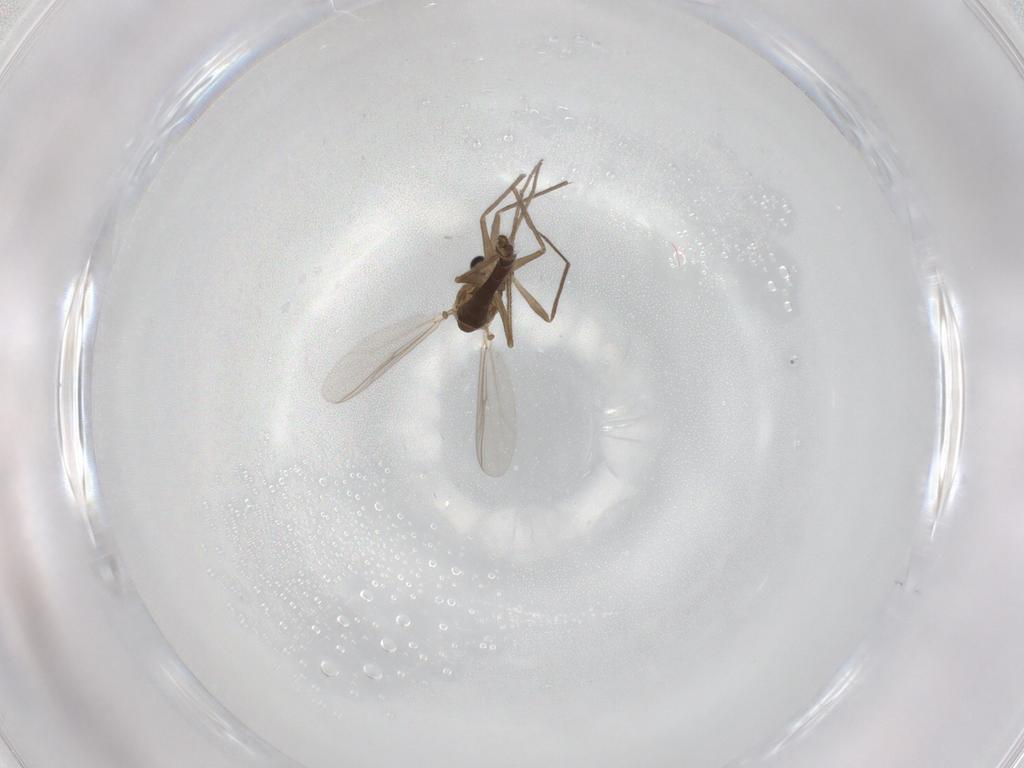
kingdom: Animalia
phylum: Arthropoda
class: Insecta
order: Diptera
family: Chironomidae
